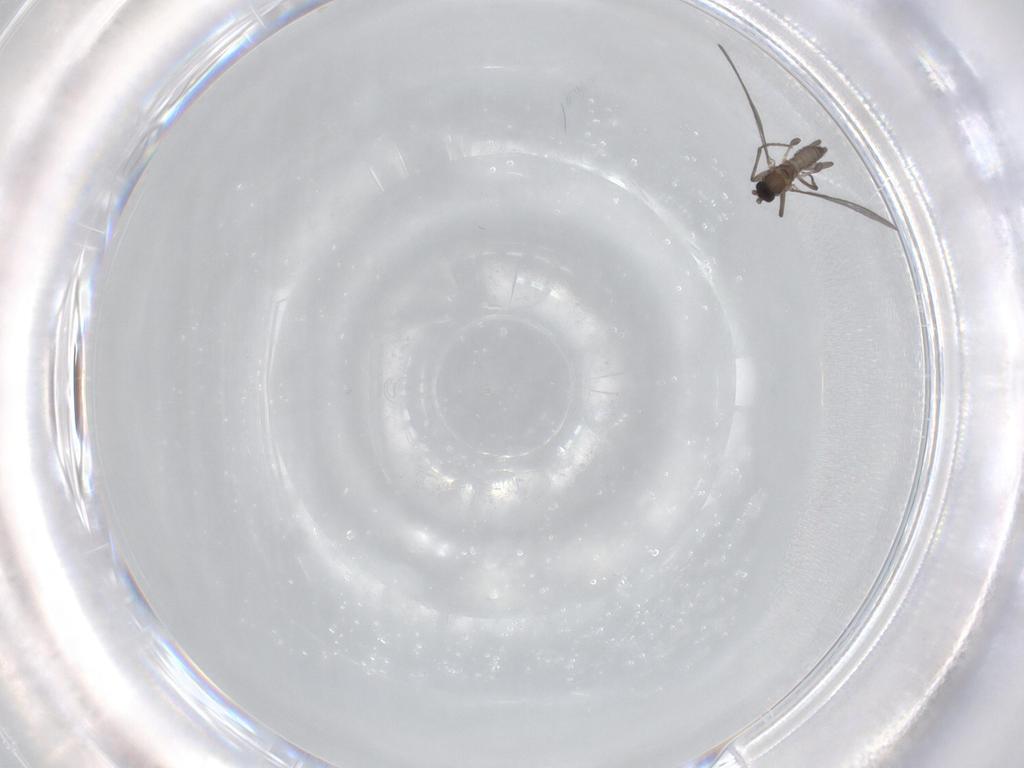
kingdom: Animalia
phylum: Arthropoda
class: Insecta
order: Diptera
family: Sciaridae
